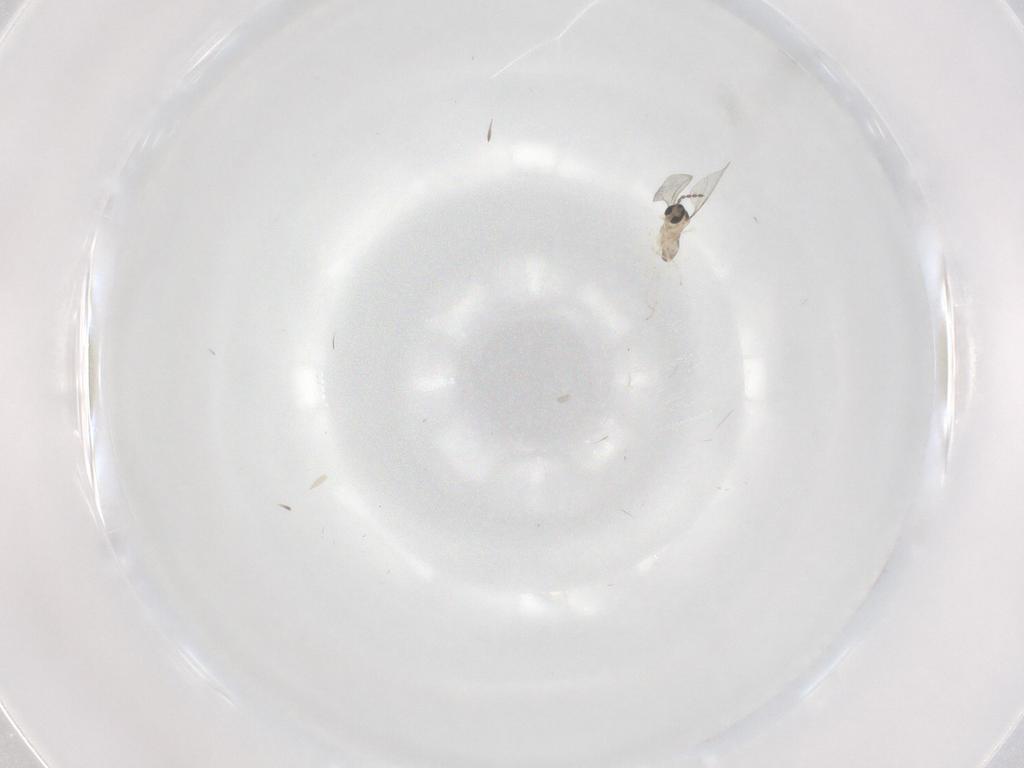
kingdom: Animalia
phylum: Arthropoda
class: Insecta
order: Diptera
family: Cecidomyiidae
